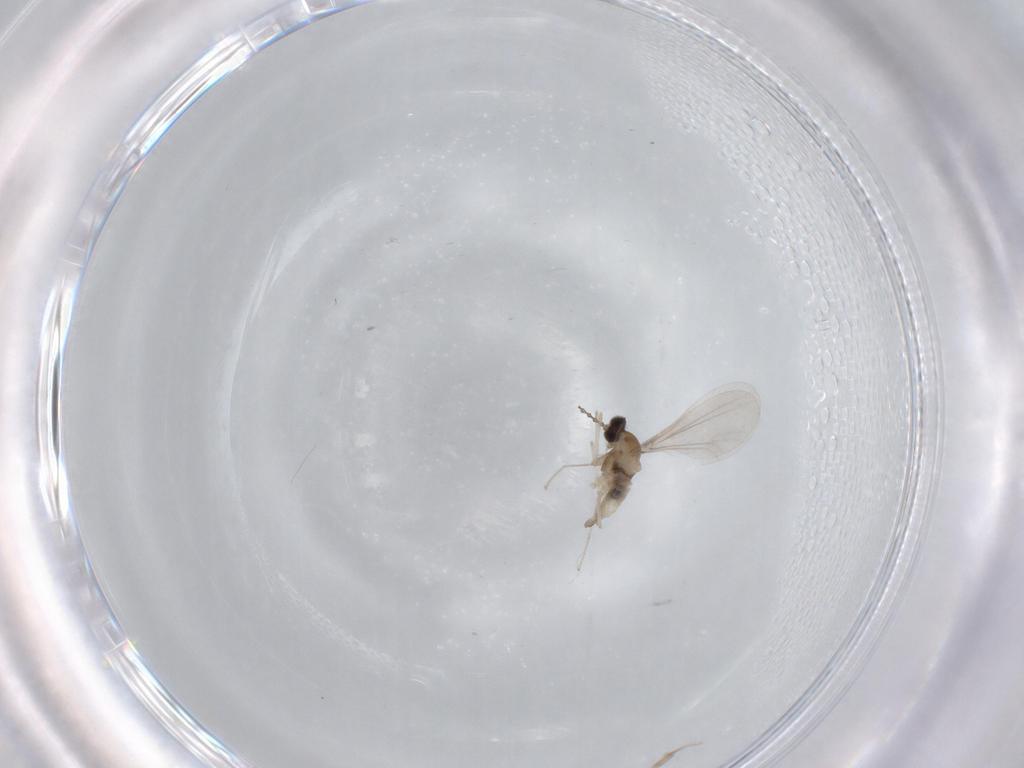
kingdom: Animalia
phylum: Arthropoda
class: Insecta
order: Diptera
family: Cecidomyiidae
